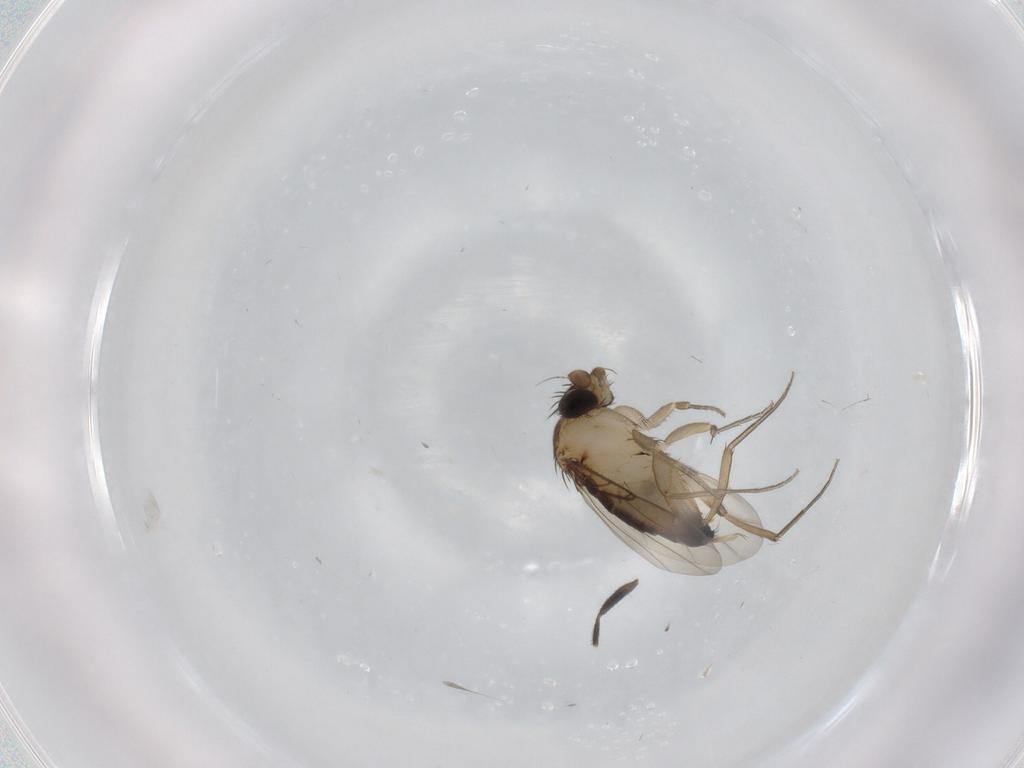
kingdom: Animalia
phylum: Arthropoda
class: Insecta
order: Diptera
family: Phoridae
